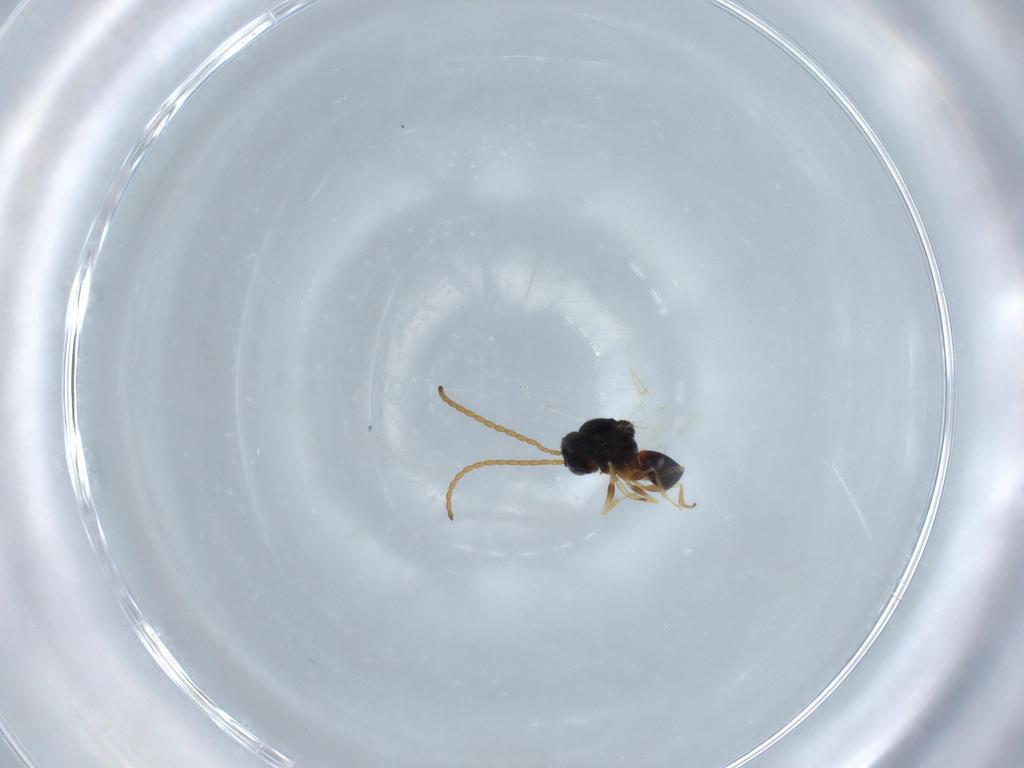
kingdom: Animalia
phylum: Arthropoda
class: Insecta
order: Hymenoptera
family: Figitidae
